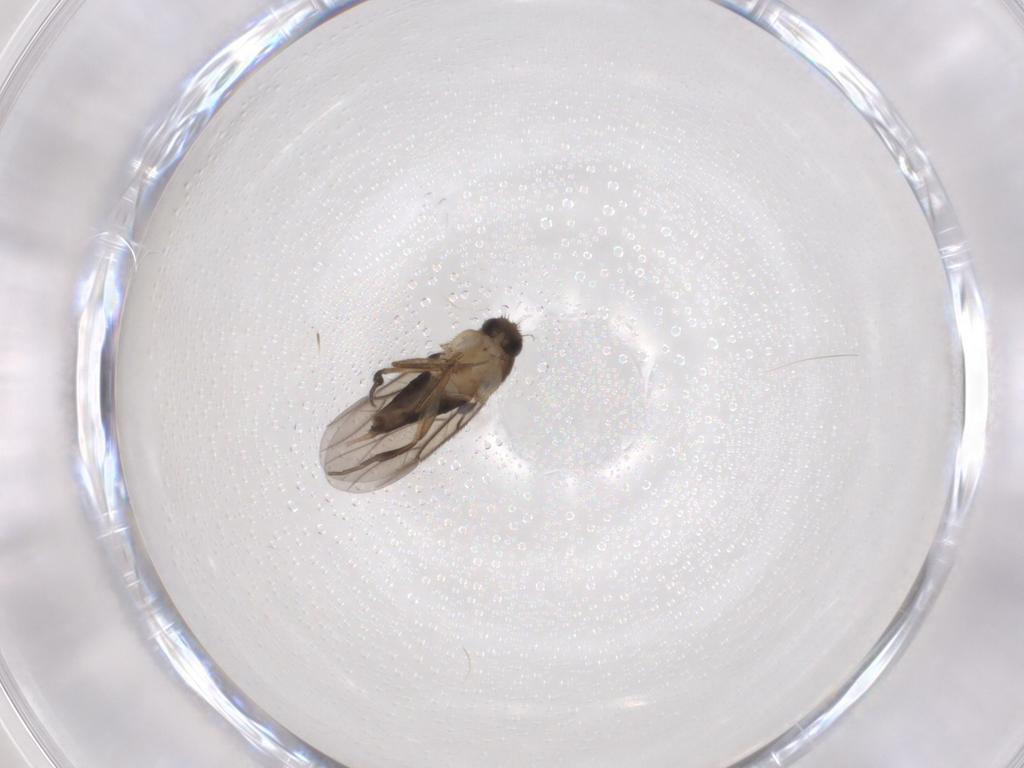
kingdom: Animalia
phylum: Arthropoda
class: Insecta
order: Diptera
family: Phoridae
